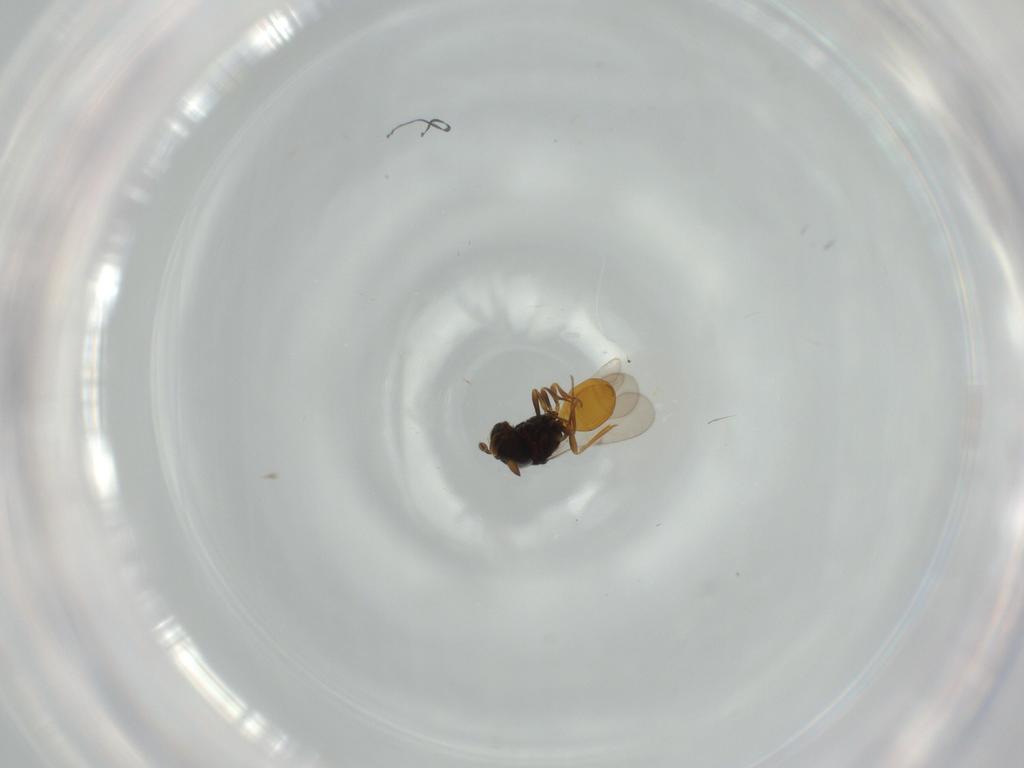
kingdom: Animalia
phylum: Arthropoda
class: Insecta
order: Hymenoptera
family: Scelionidae
